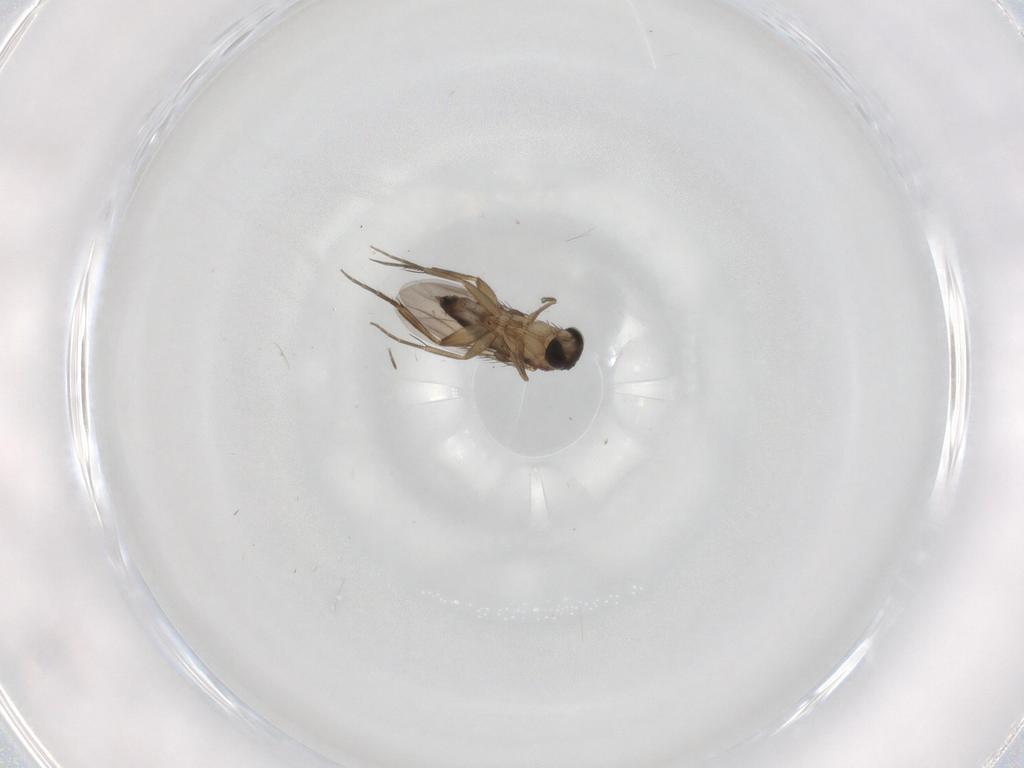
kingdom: Animalia
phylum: Arthropoda
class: Insecta
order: Diptera
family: Phoridae
